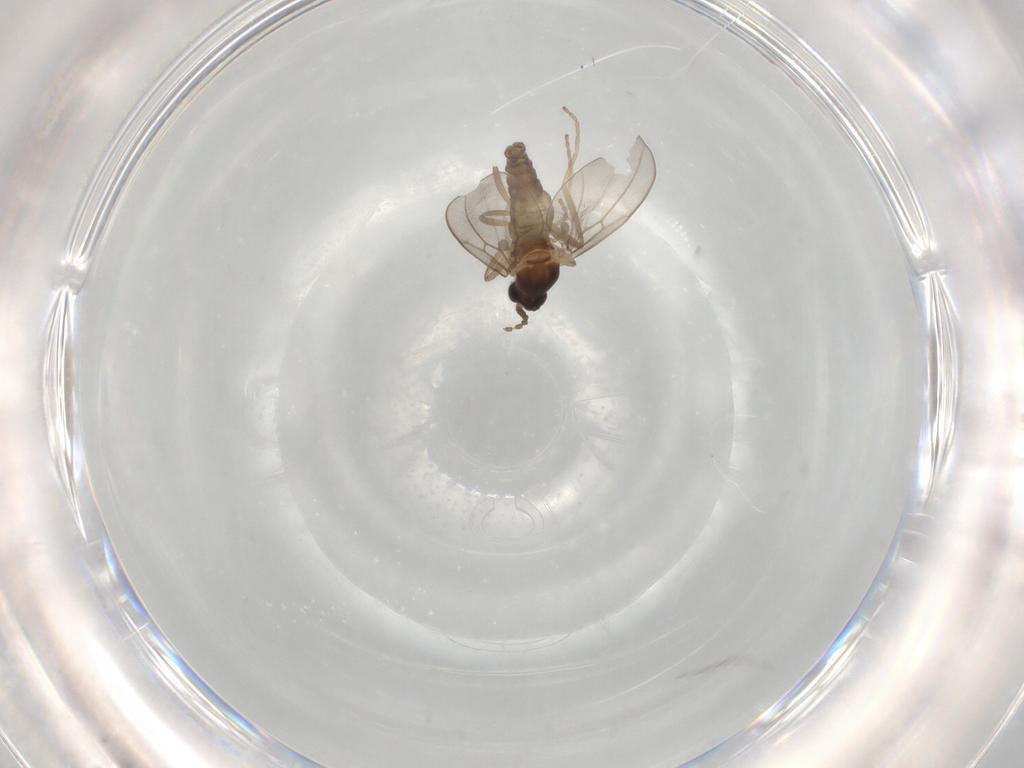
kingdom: Animalia
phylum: Arthropoda
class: Insecta
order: Diptera
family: Cecidomyiidae
